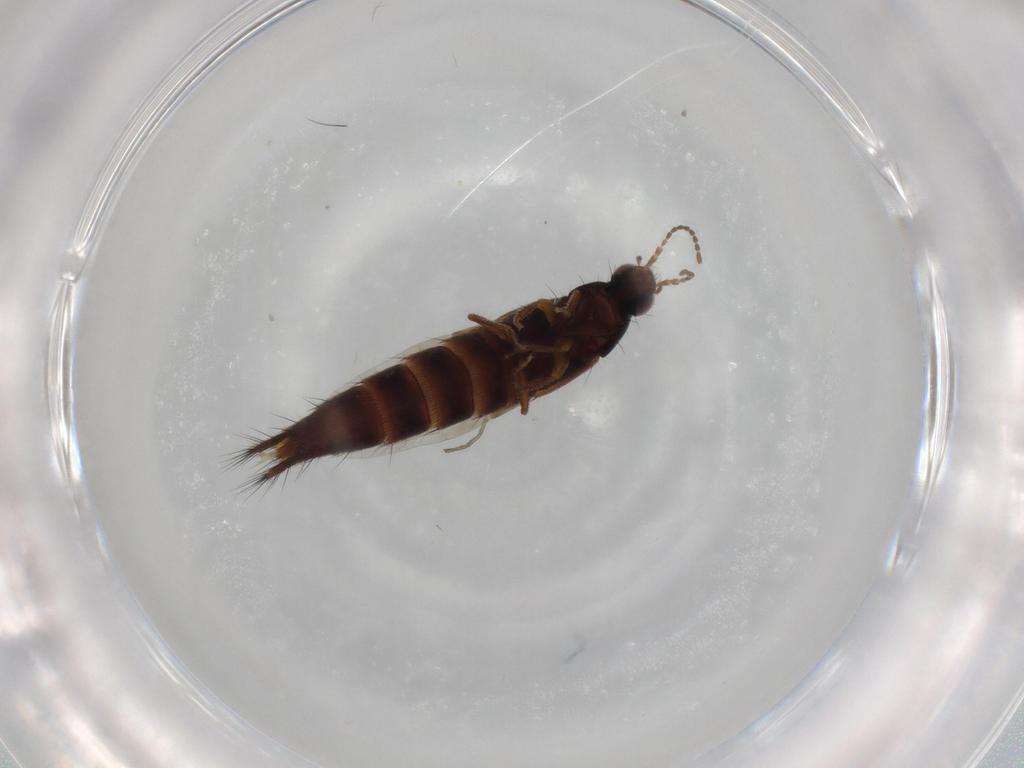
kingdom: Animalia
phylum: Arthropoda
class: Insecta
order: Coleoptera
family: Staphylinidae
